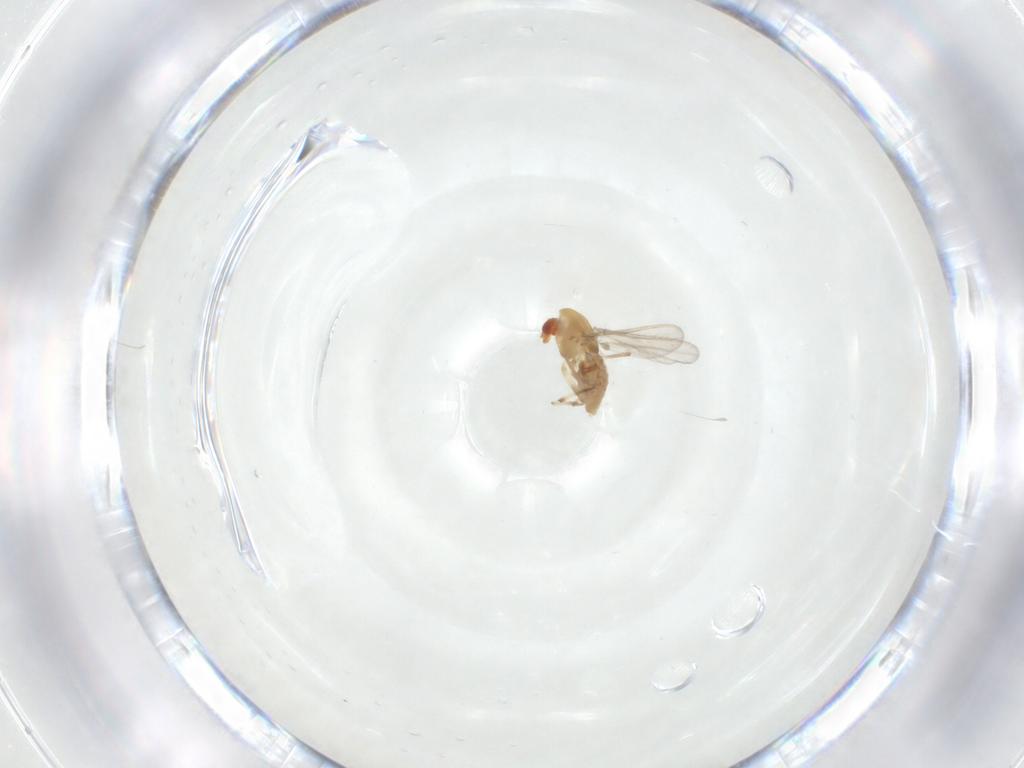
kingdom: Animalia
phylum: Arthropoda
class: Insecta
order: Diptera
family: Chironomidae
